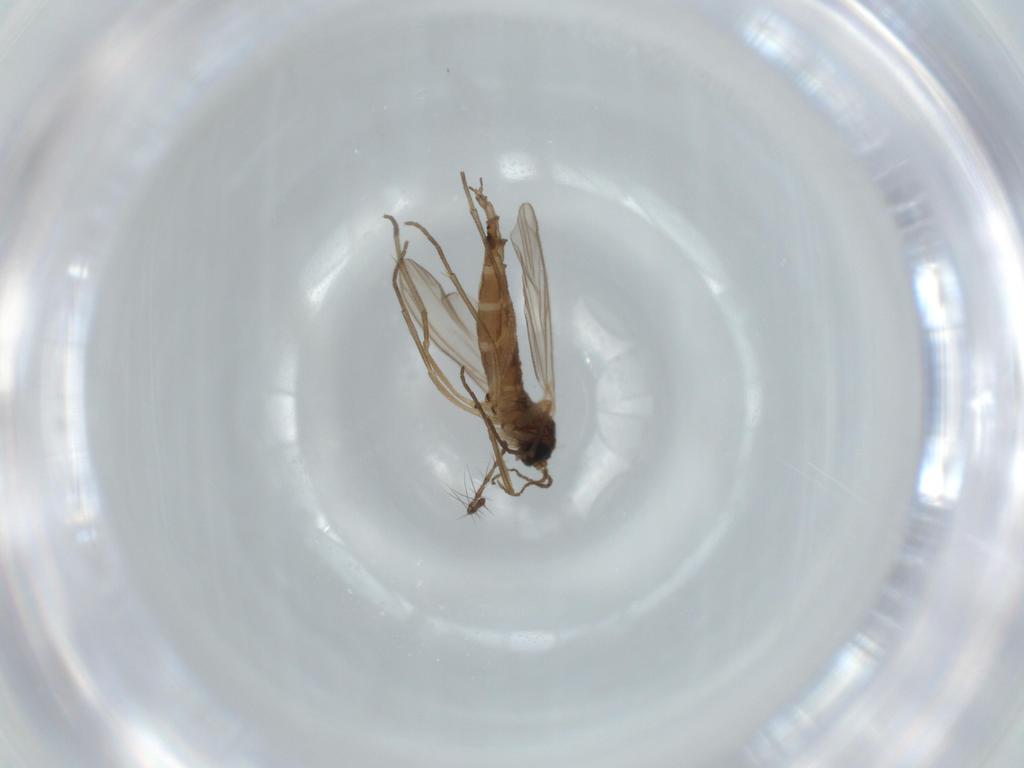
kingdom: Animalia
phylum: Arthropoda
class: Insecta
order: Diptera
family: Sciaridae
